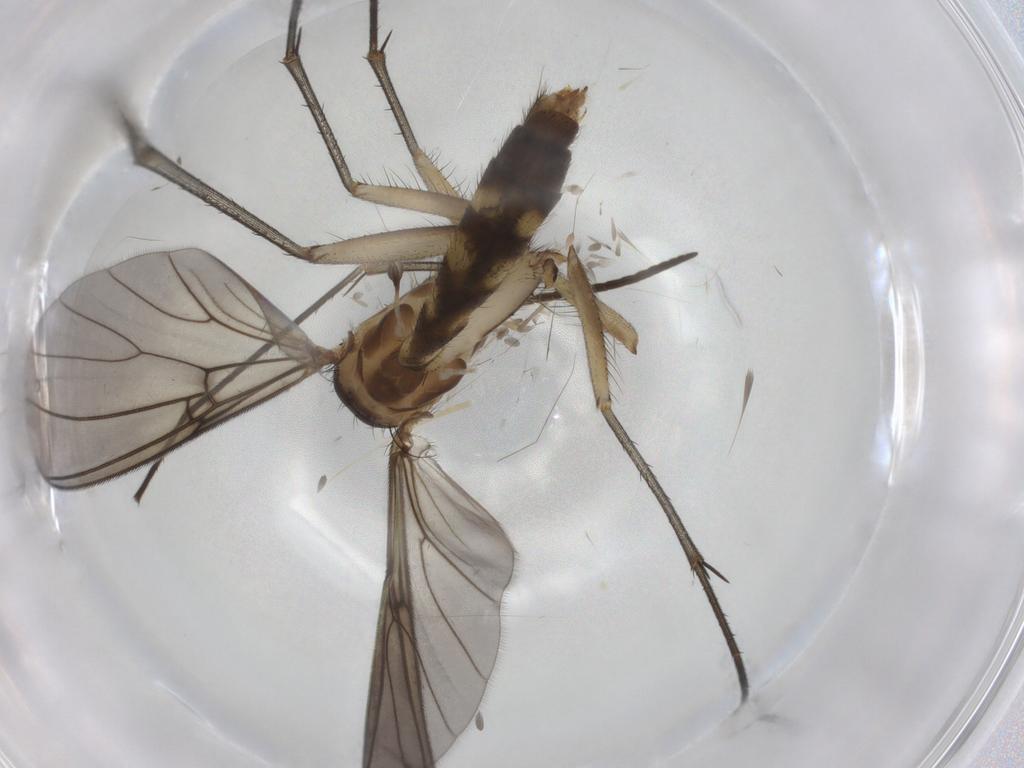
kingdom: Animalia
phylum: Arthropoda
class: Insecta
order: Diptera
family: Mycetophilidae
